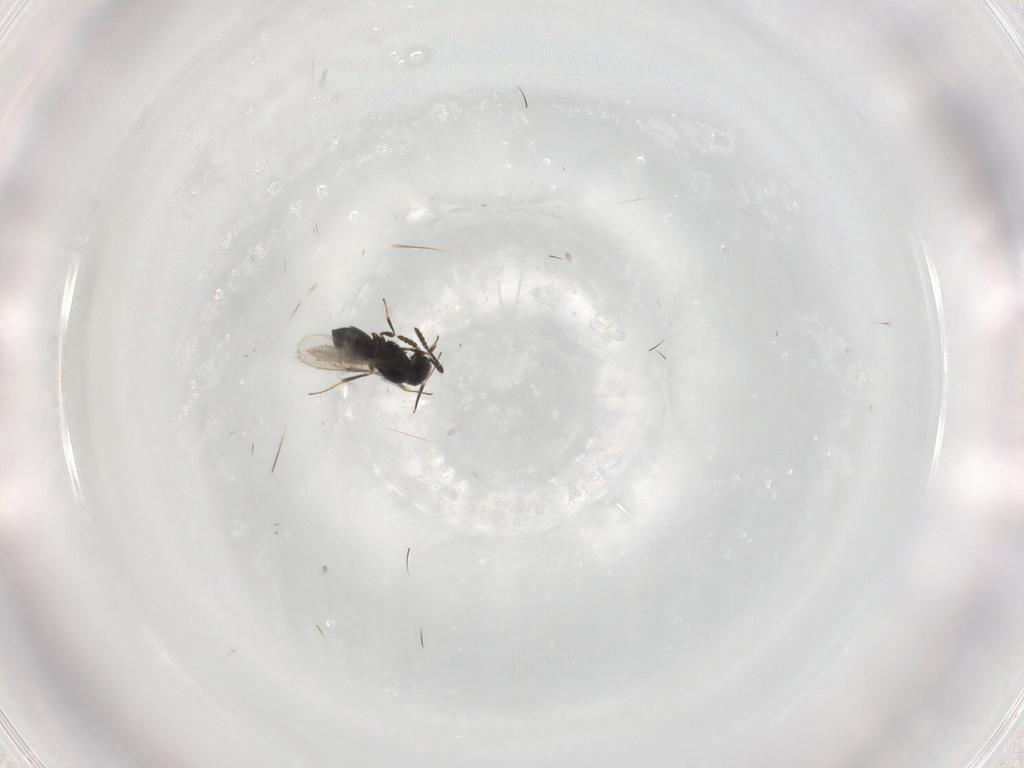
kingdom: Animalia
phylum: Arthropoda
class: Insecta
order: Hymenoptera
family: Scelionidae
